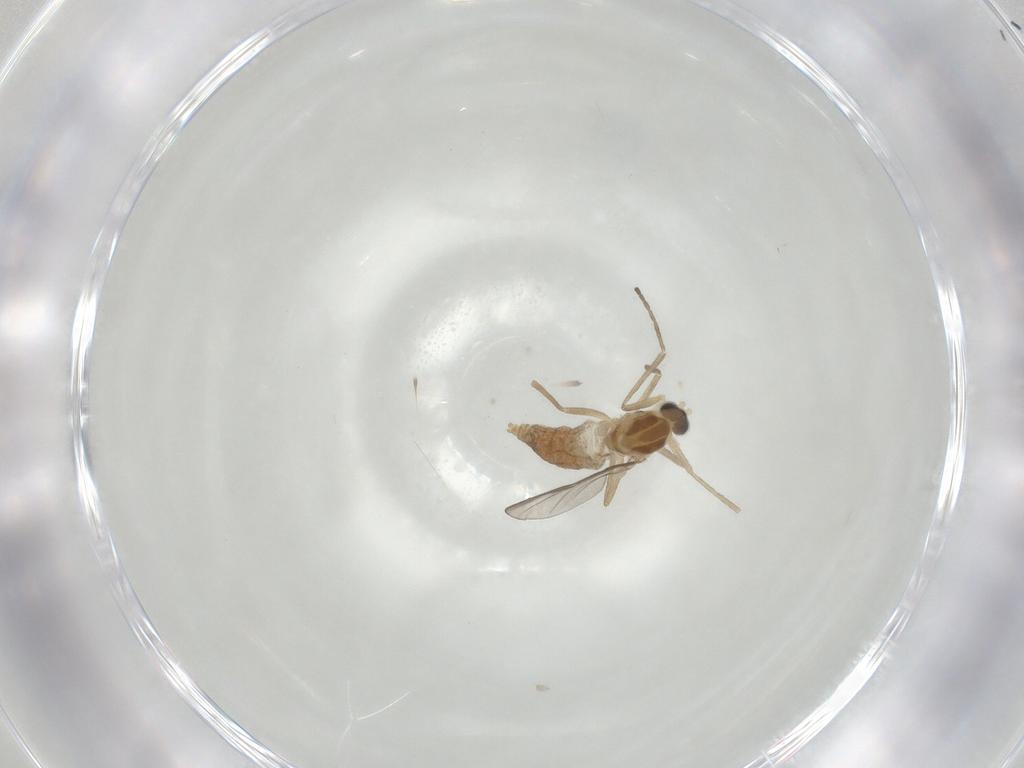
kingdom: Animalia
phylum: Arthropoda
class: Insecta
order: Diptera
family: Cecidomyiidae
